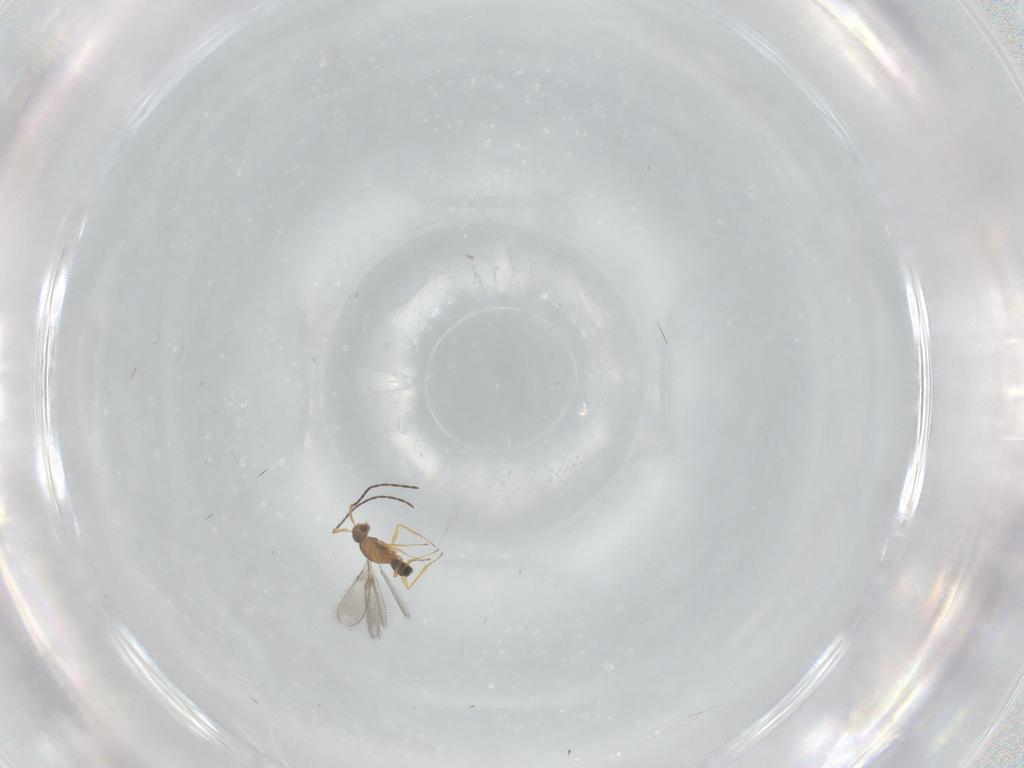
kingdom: Animalia
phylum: Arthropoda
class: Insecta
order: Hymenoptera
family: Mymaridae
